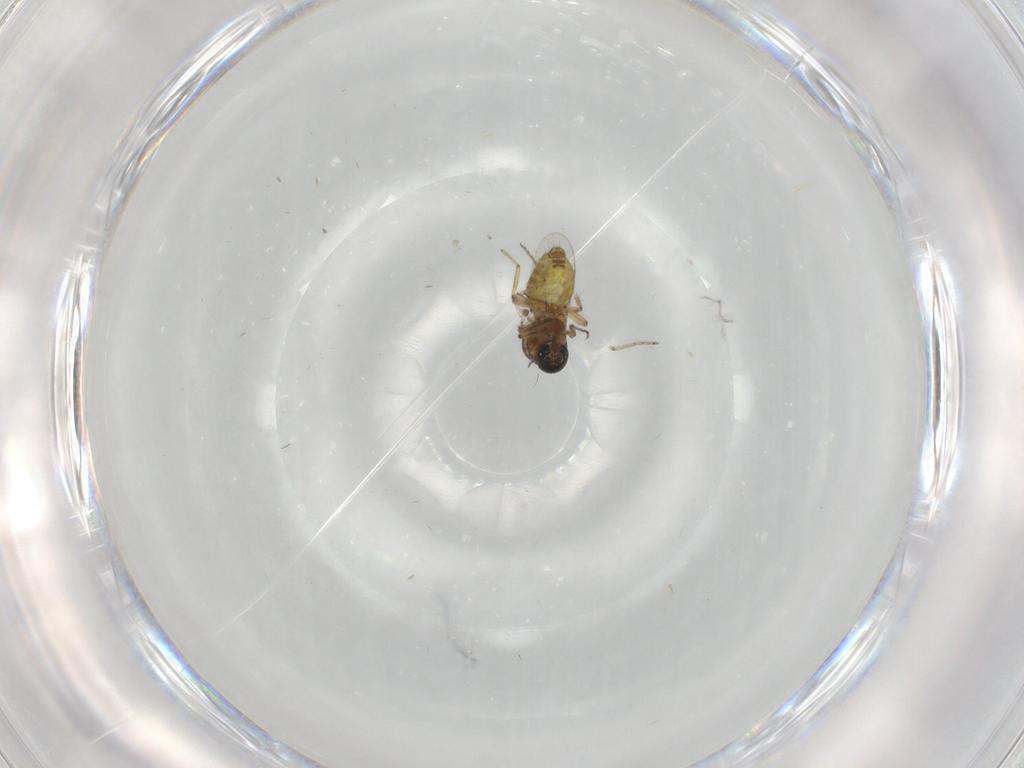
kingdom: Animalia
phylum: Arthropoda
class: Insecta
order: Diptera
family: Ceratopogonidae
